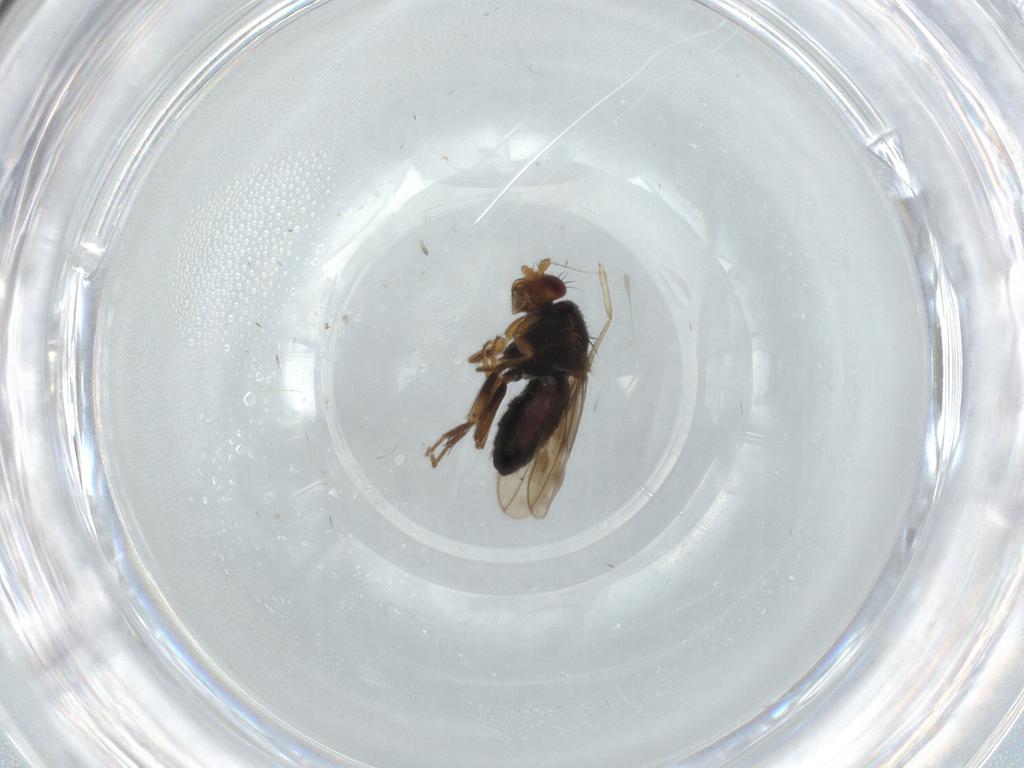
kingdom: Animalia
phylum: Arthropoda
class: Insecta
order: Diptera
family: Sphaeroceridae
